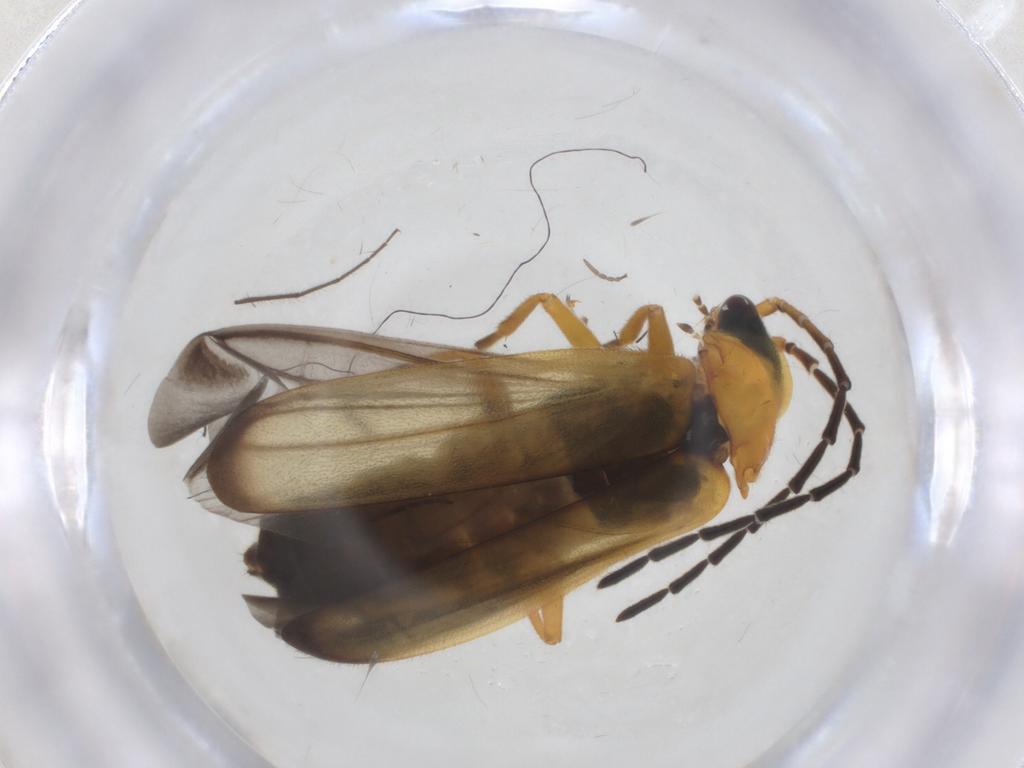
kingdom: Animalia
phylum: Arthropoda
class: Insecta
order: Coleoptera
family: Cantharidae
